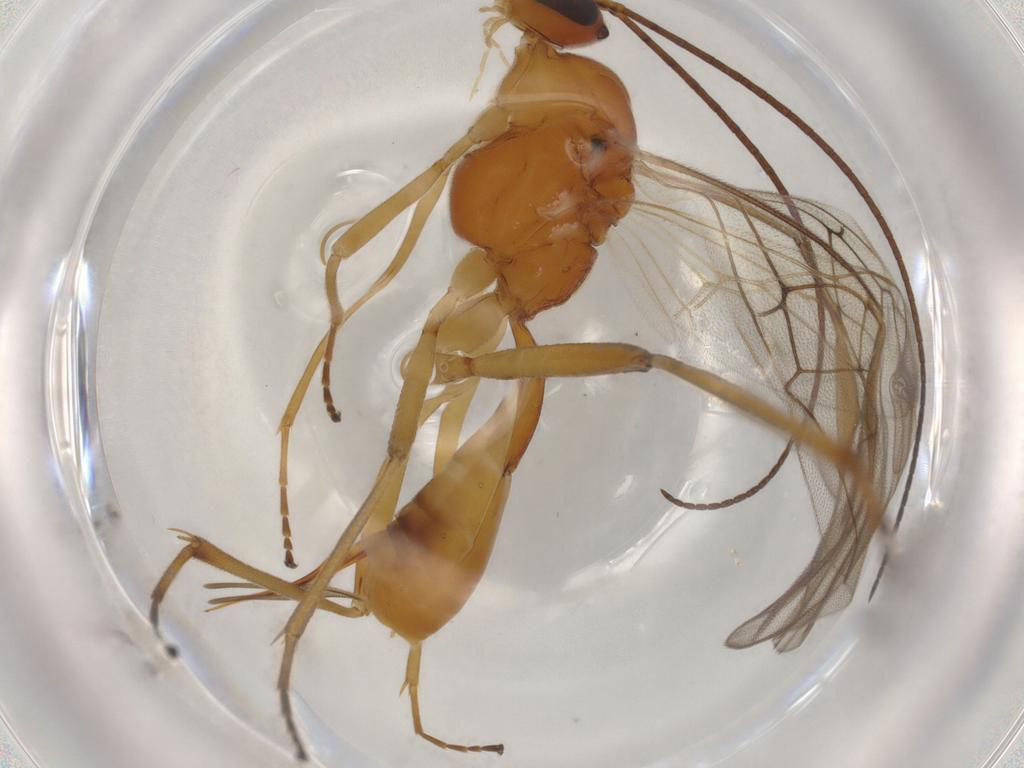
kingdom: Animalia
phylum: Arthropoda
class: Insecta
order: Hymenoptera
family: Braconidae
